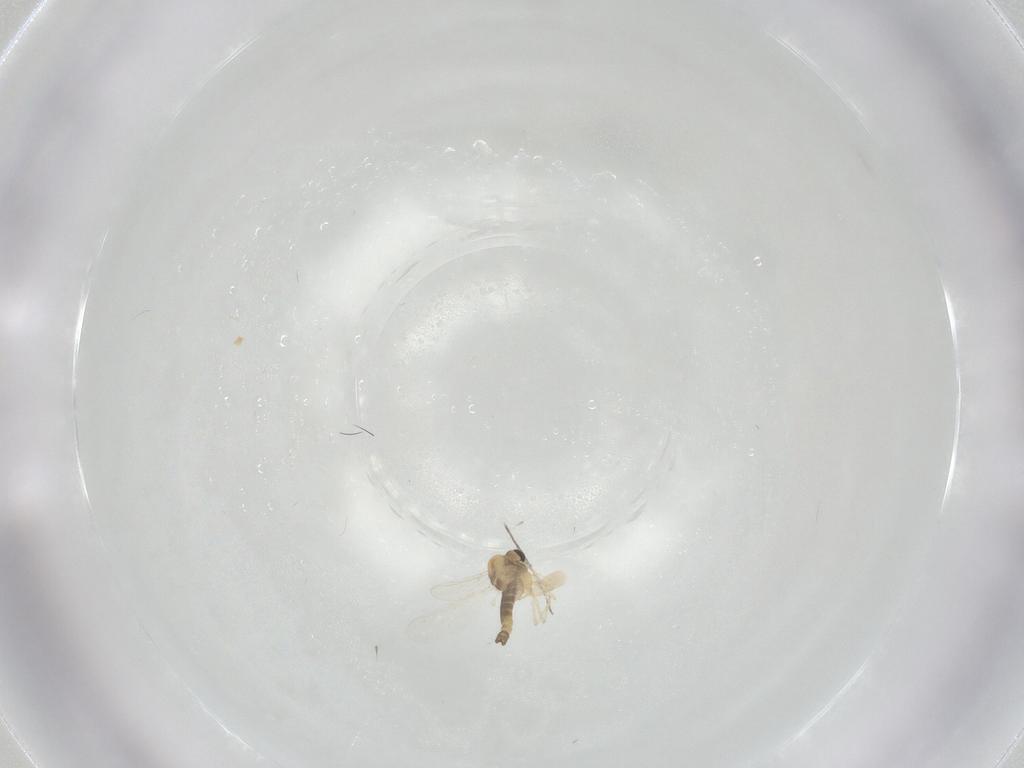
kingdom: Animalia
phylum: Arthropoda
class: Insecta
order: Diptera
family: Chironomidae
